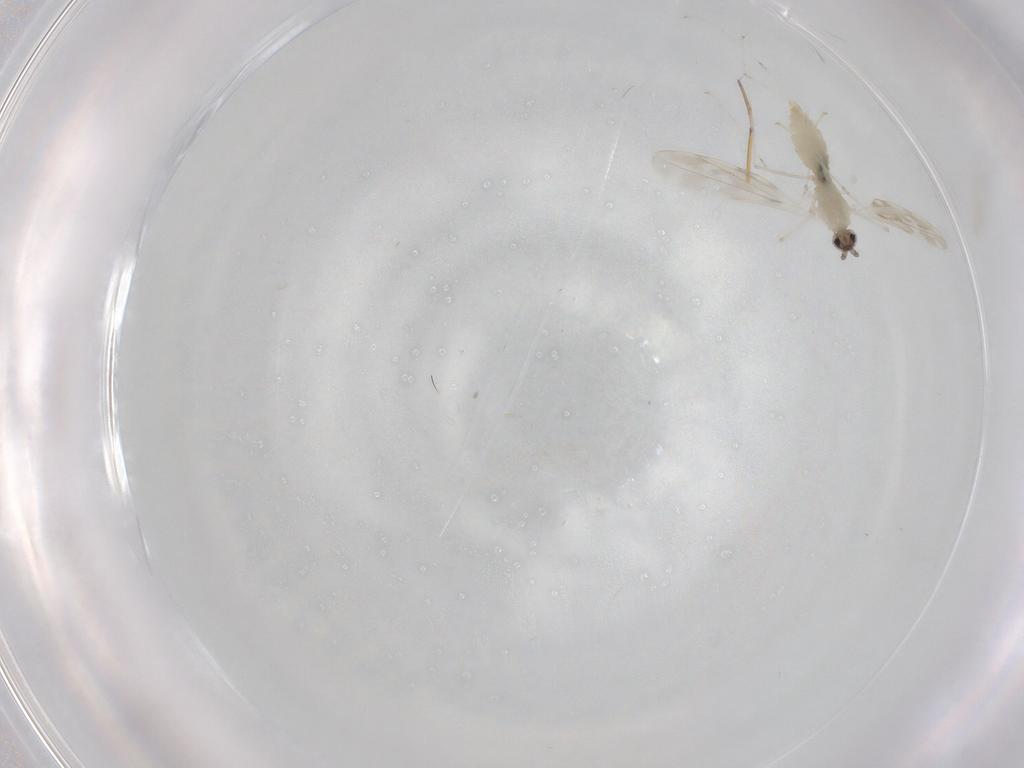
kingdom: Animalia
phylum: Arthropoda
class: Insecta
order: Diptera
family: Cecidomyiidae
